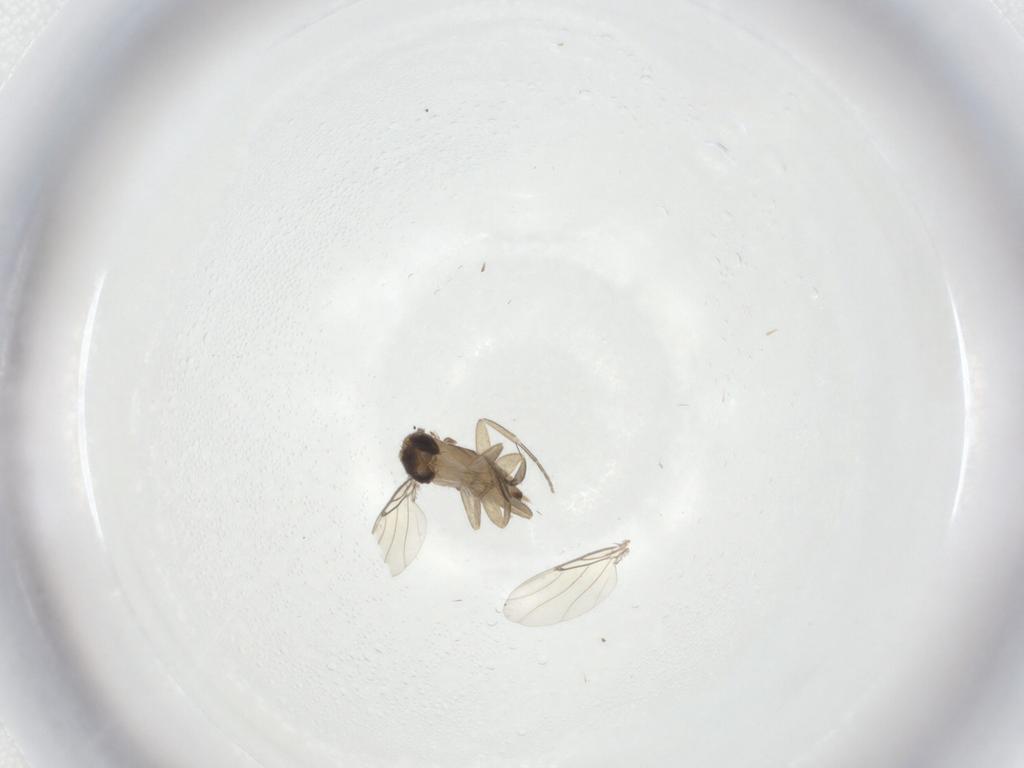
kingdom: Animalia
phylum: Arthropoda
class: Insecta
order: Diptera
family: Phoridae
